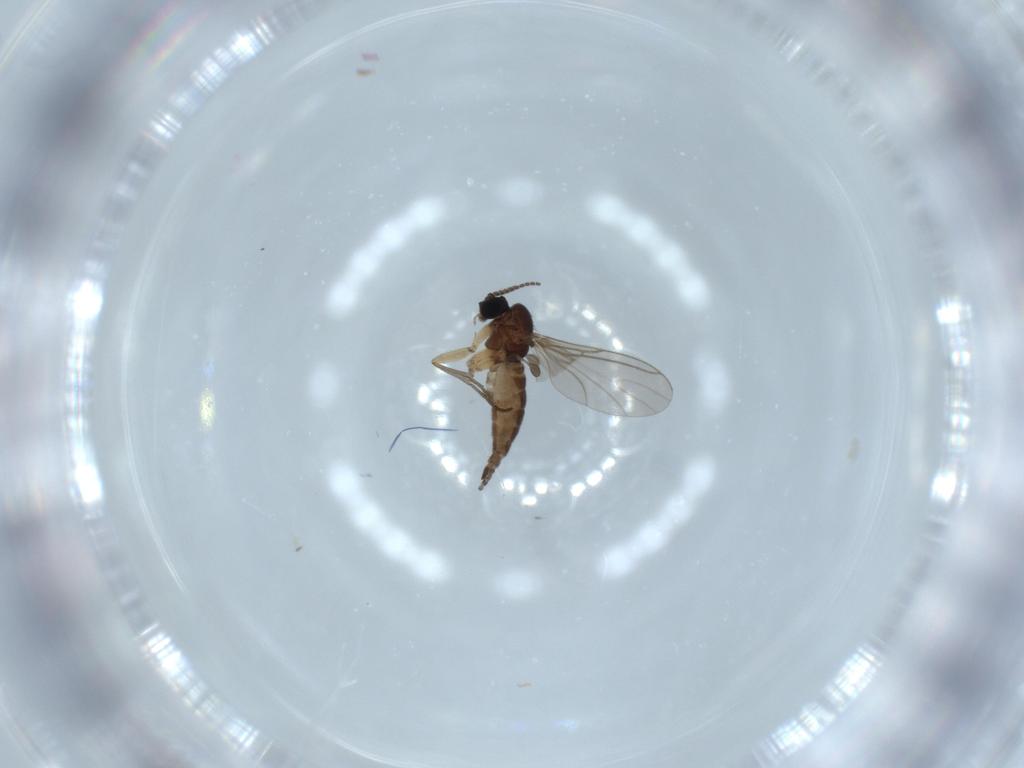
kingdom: Animalia
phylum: Arthropoda
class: Insecta
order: Diptera
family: Sciaridae
